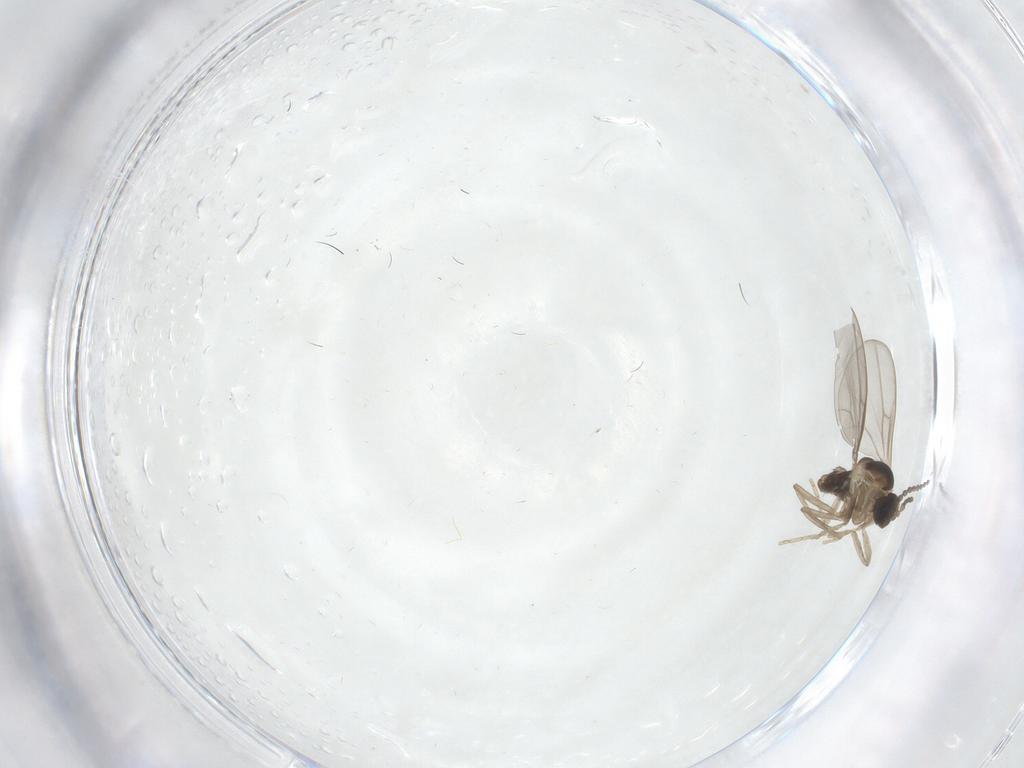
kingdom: Animalia
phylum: Arthropoda
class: Insecta
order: Diptera
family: Cecidomyiidae
